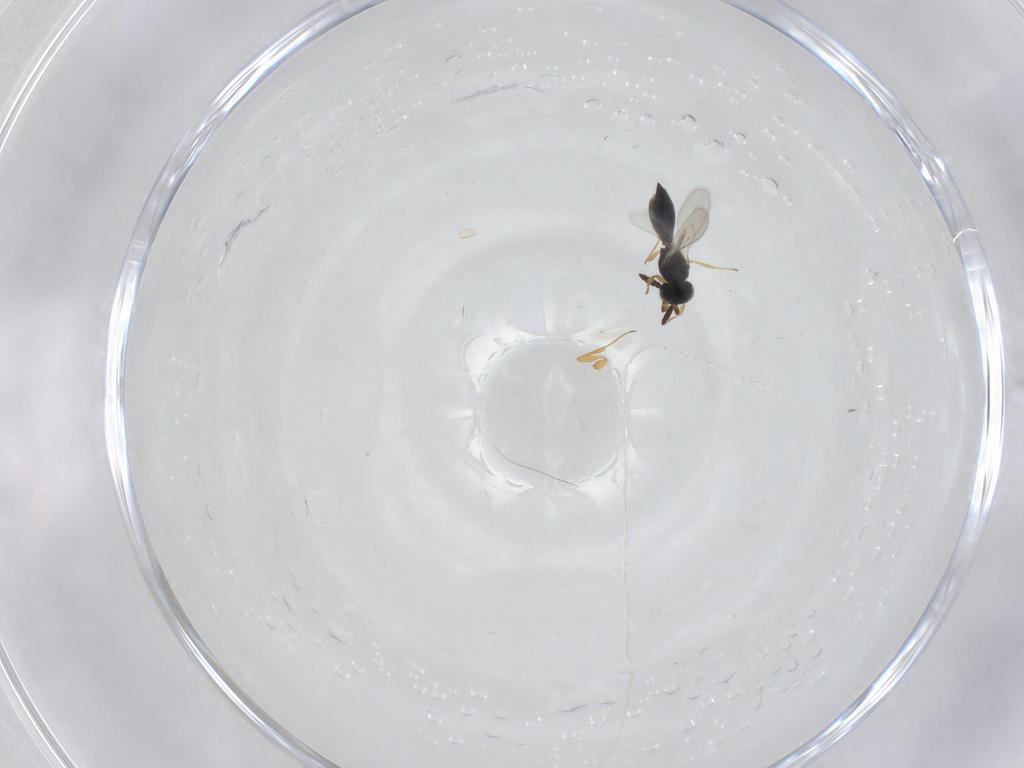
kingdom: Animalia
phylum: Arthropoda
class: Insecta
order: Hymenoptera
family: Scelionidae
